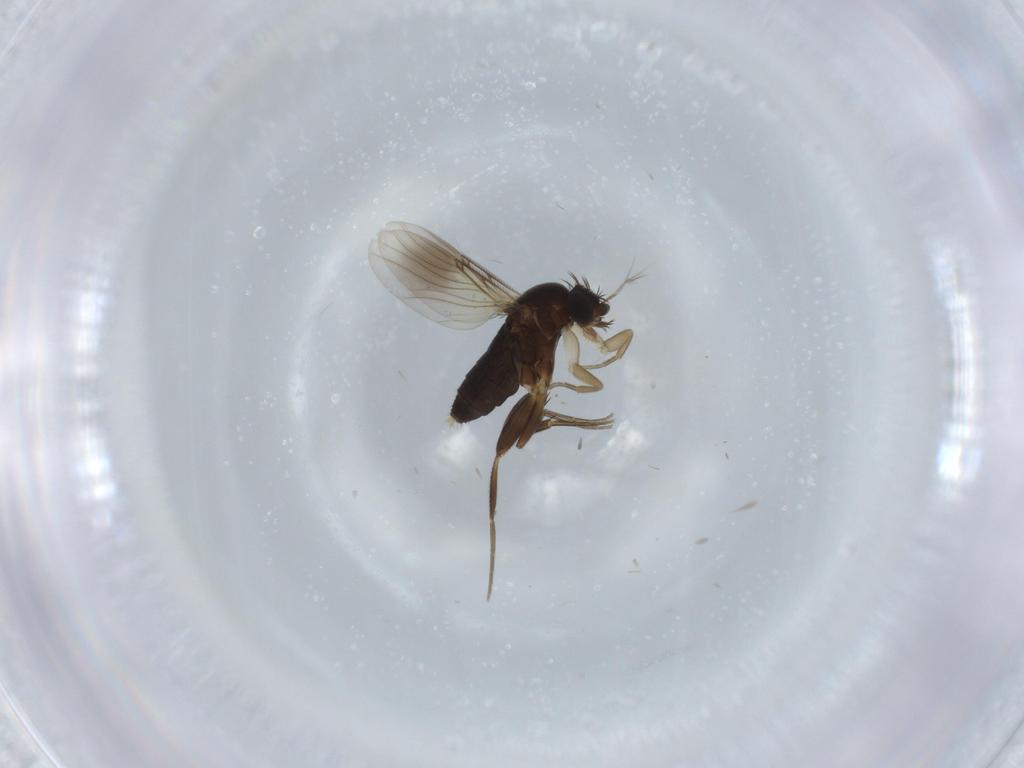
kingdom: Animalia
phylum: Arthropoda
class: Insecta
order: Diptera
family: Phoridae
